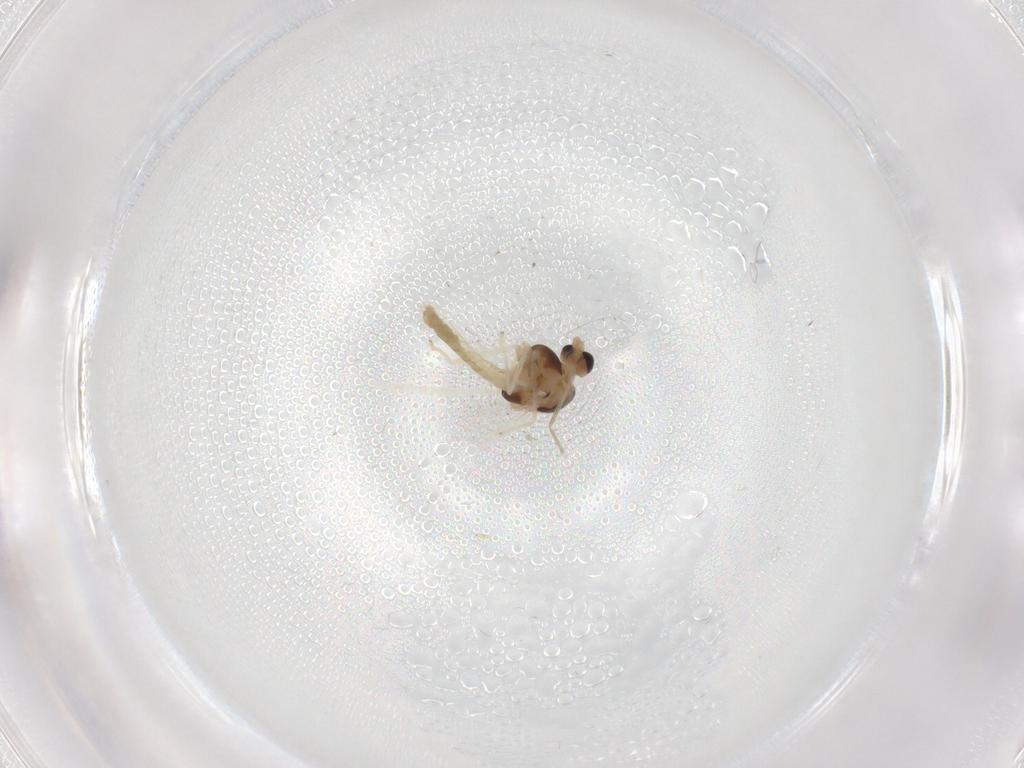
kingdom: Animalia
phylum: Arthropoda
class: Insecta
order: Diptera
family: Chironomidae
